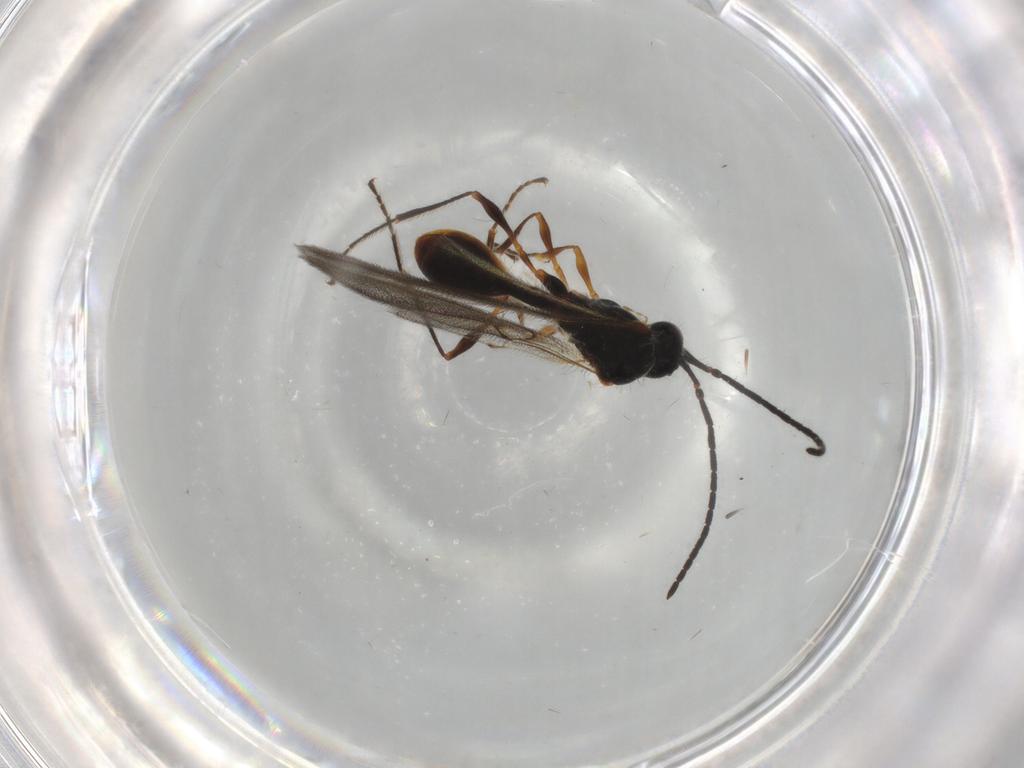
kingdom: Animalia
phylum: Arthropoda
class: Insecta
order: Hymenoptera
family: Diapriidae
